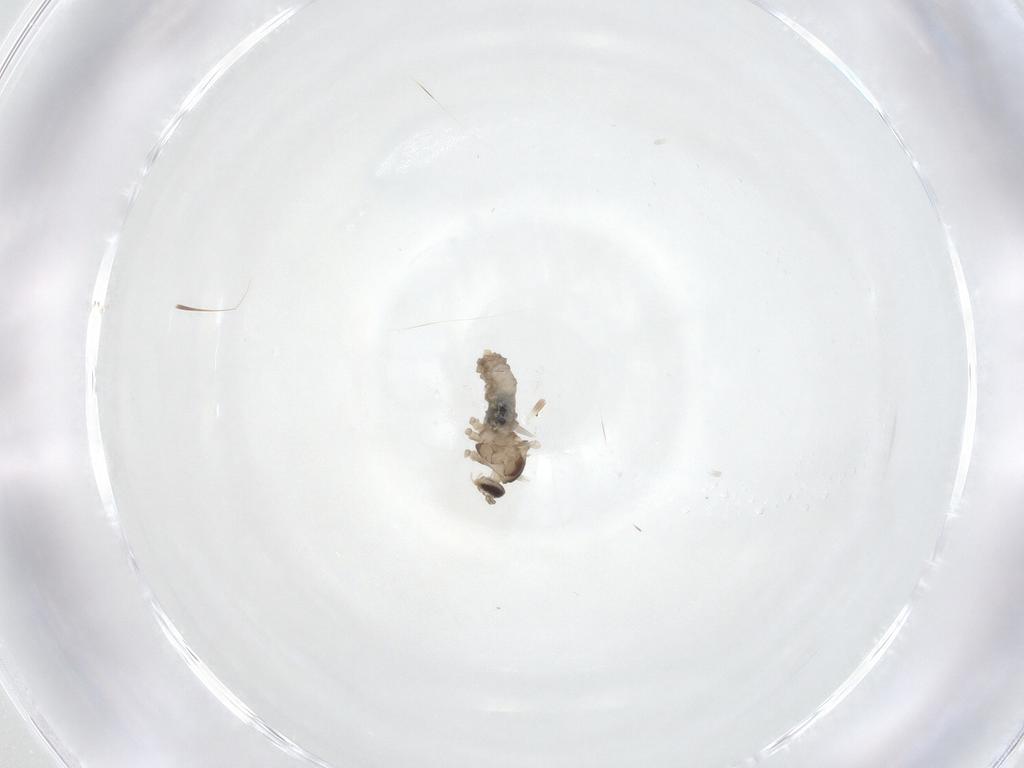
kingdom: Animalia
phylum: Arthropoda
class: Insecta
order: Diptera
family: Cecidomyiidae
